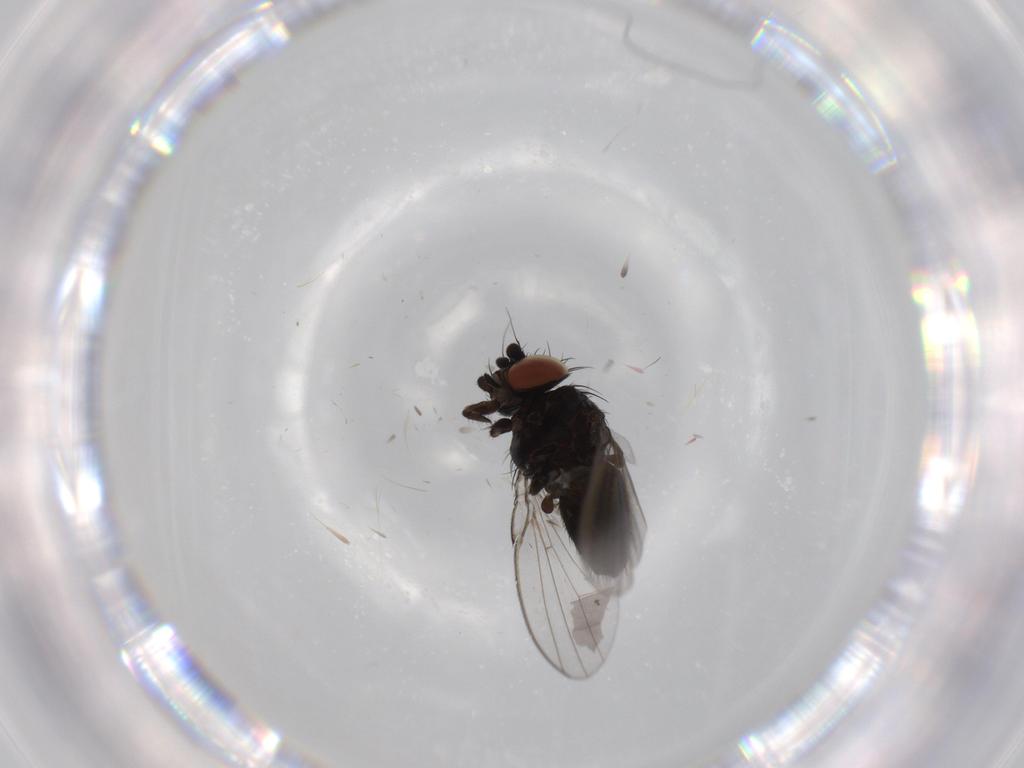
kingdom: Animalia
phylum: Arthropoda
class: Insecta
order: Diptera
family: Milichiidae
